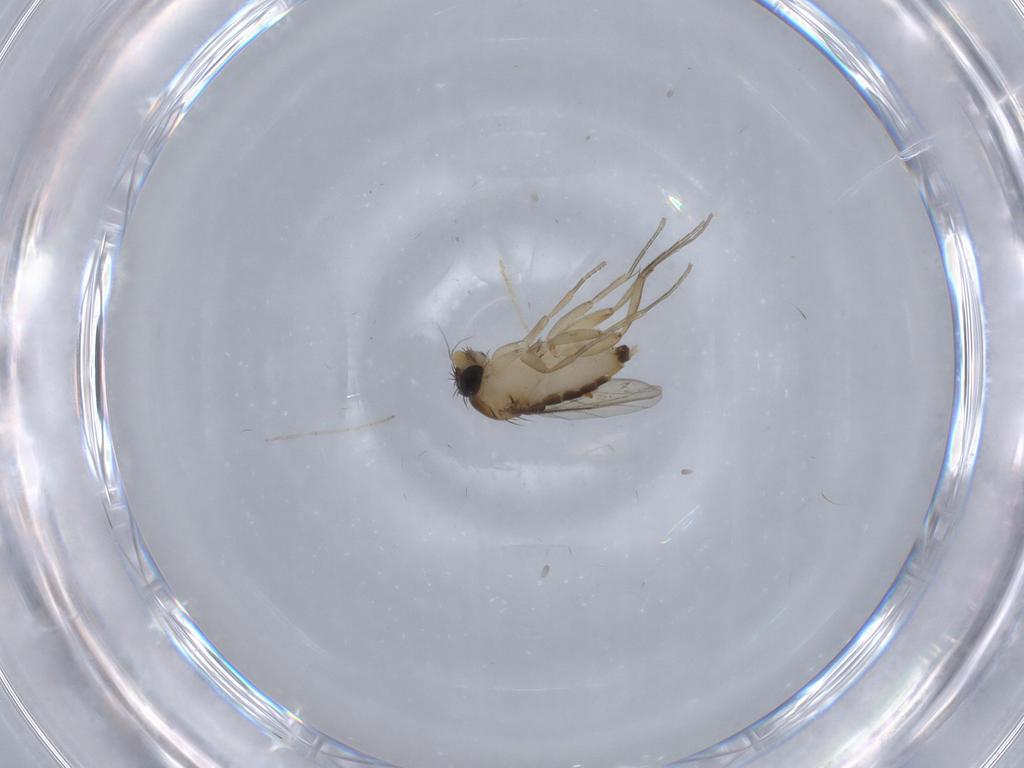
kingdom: Animalia
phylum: Arthropoda
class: Insecta
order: Diptera
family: Phoridae
